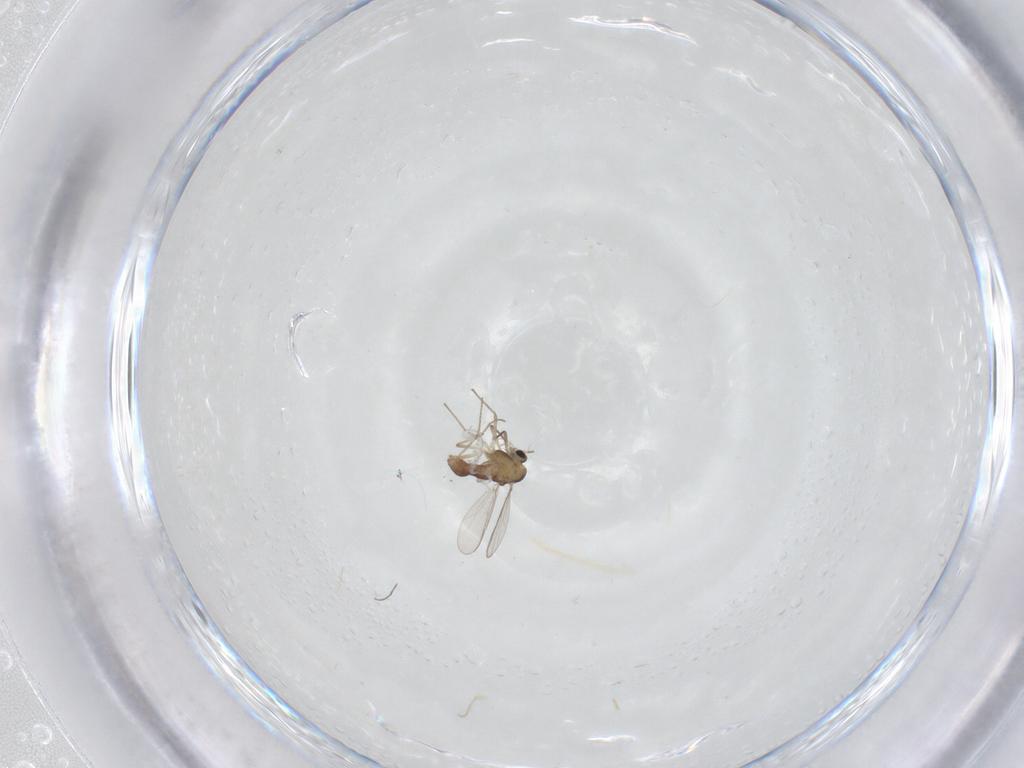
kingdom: Animalia
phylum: Arthropoda
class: Insecta
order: Diptera
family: Chironomidae
